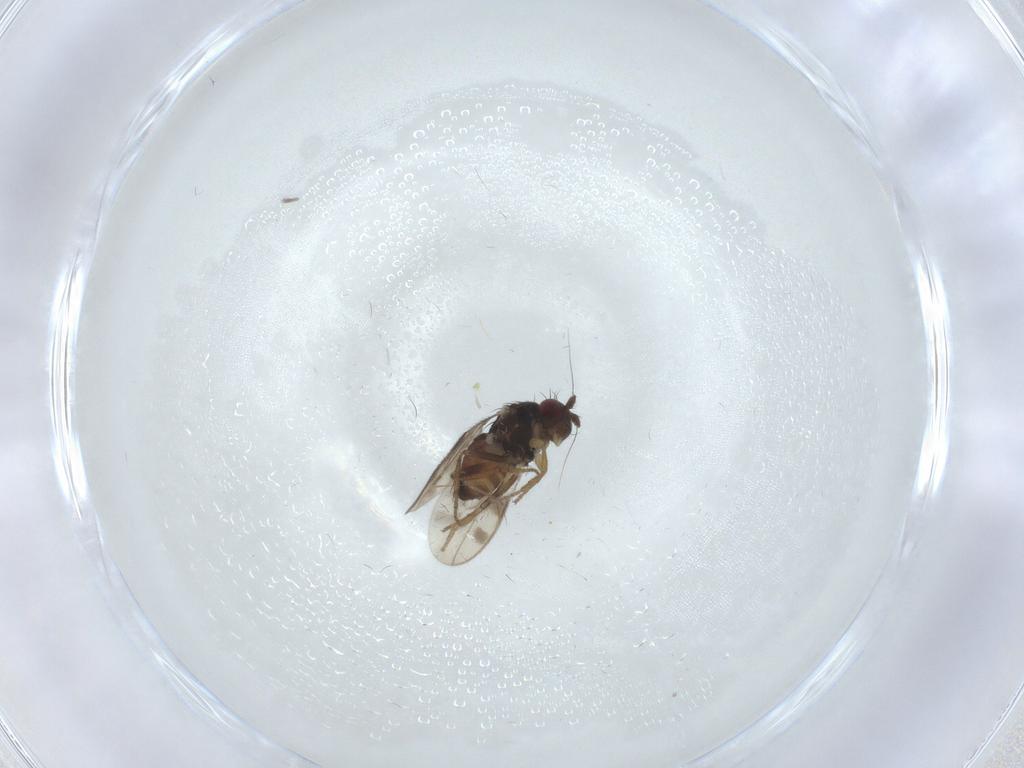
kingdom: Animalia
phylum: Arthropoda
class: Insecta
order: Diptera
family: Sphaeroceridae
